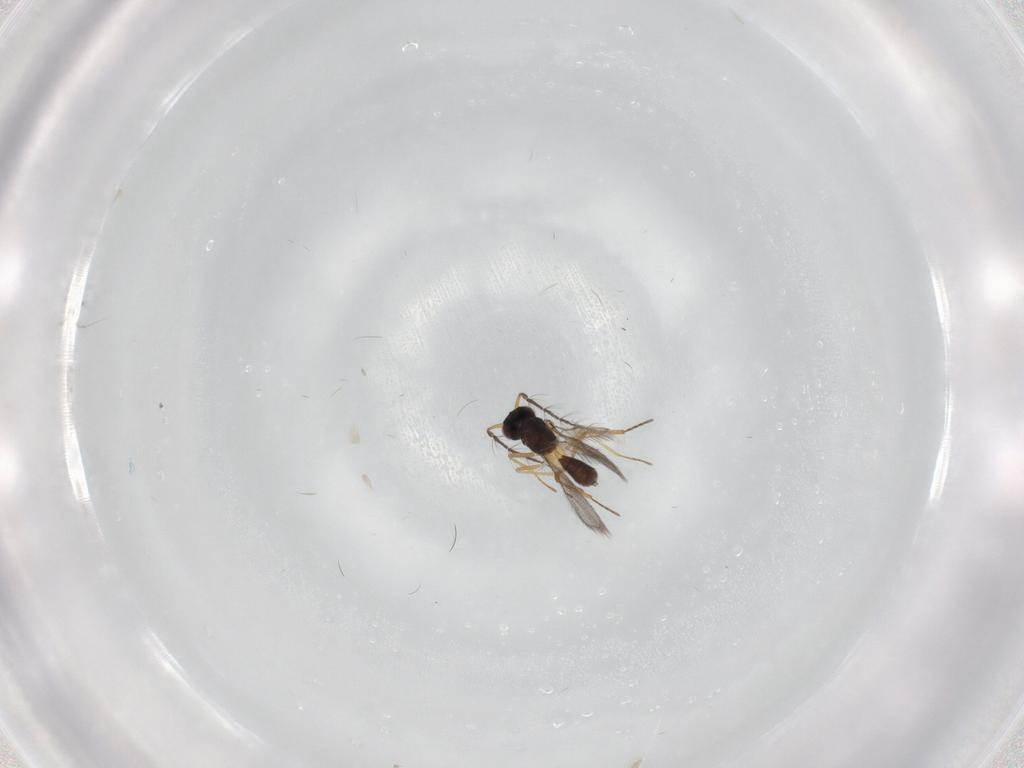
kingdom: Animalia
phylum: Arthropoda
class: Insecta
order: Hymenoptera
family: Eulophidae
